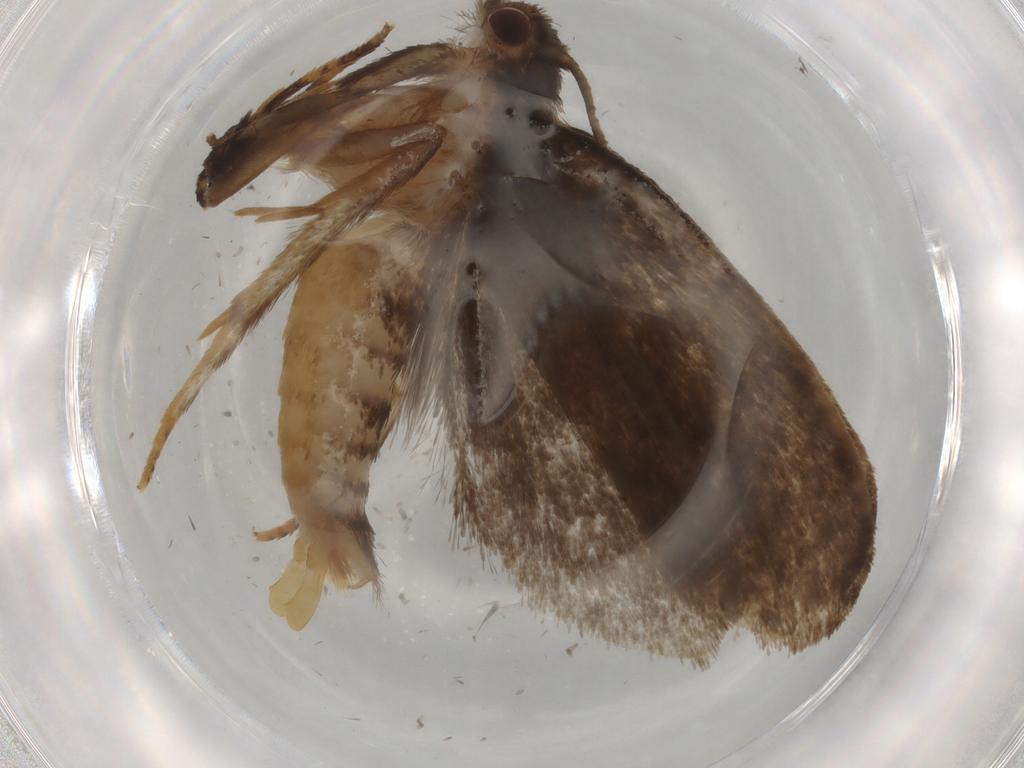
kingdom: Animalia
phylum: Arthropoda
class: Insecta
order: Lepidoptera
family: Tineidae
